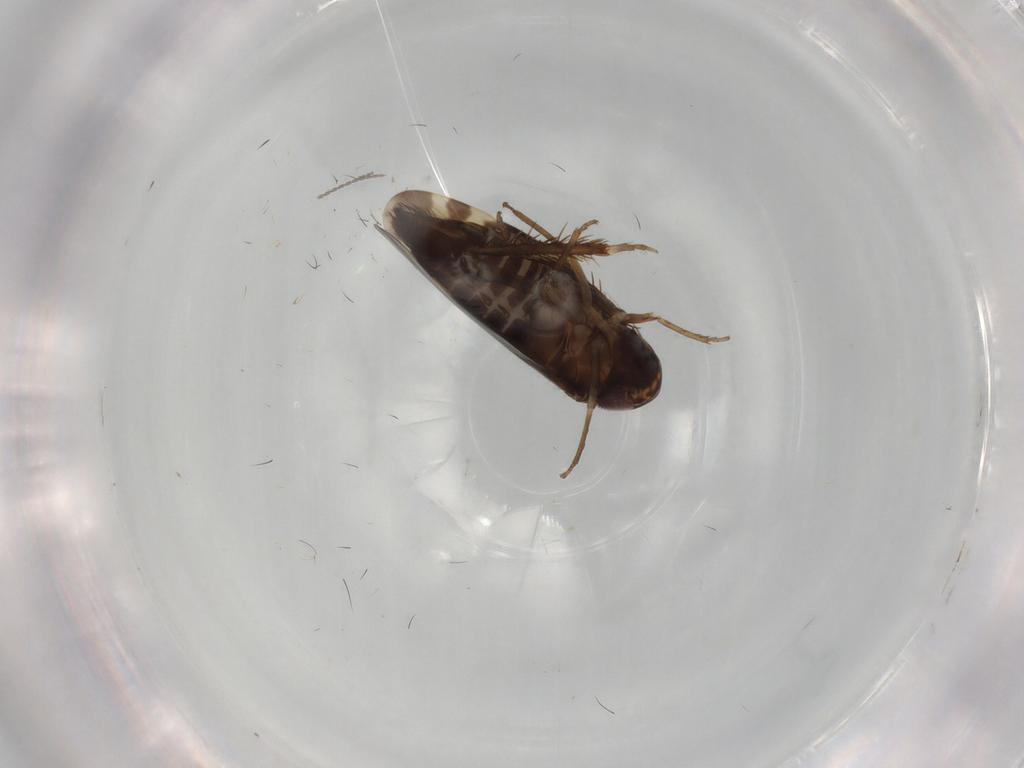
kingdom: Animalia
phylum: Arthropoda
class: Insecta
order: Hemiptera
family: Cicadellidae
